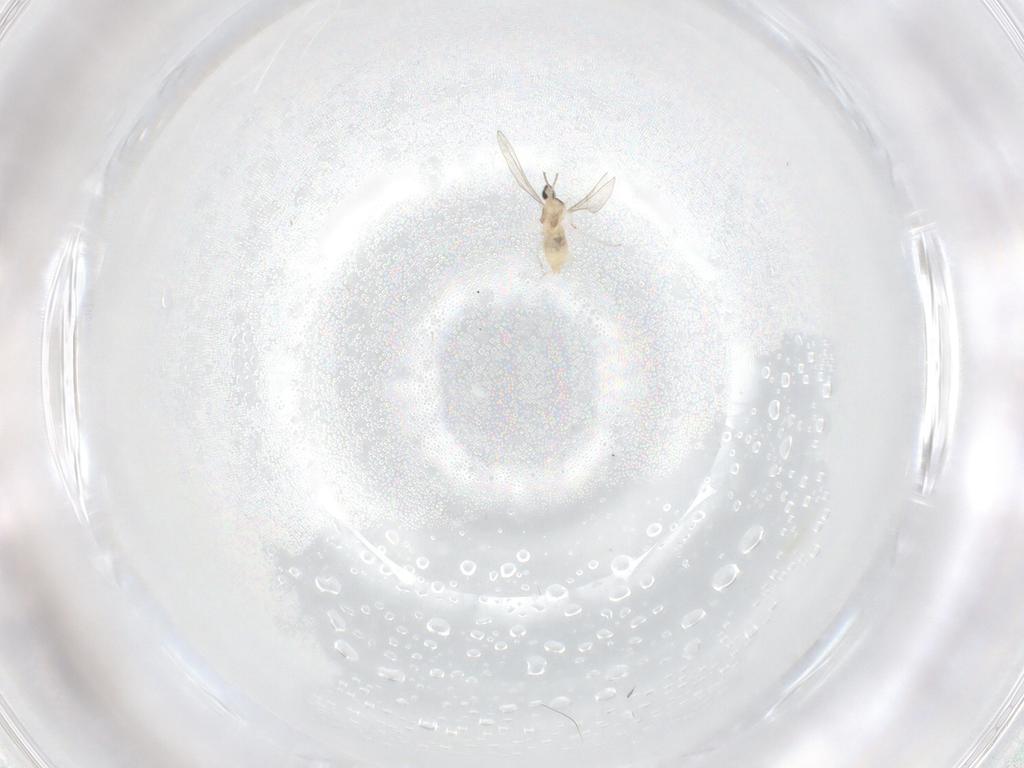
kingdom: Animalia
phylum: Arthropoda
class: Insecta
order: Diptera
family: Cecidomyiidae
